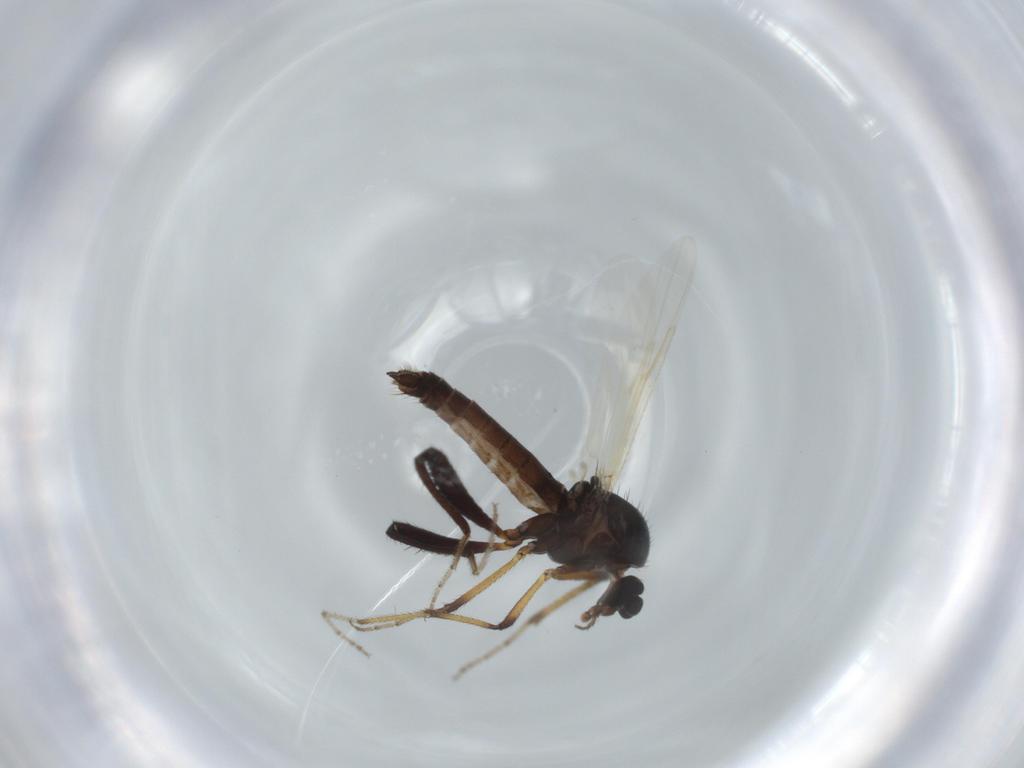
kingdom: Animalia
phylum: Arthropoda
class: Insecta
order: Diptera
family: Ceratopogonidae
